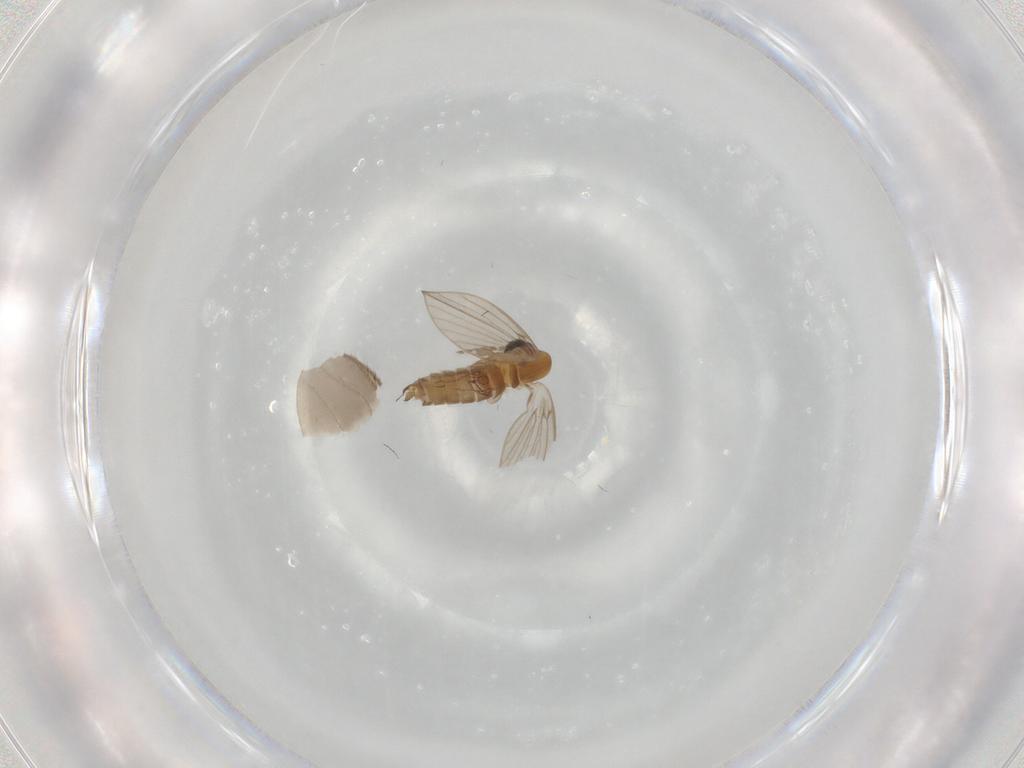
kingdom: Animalia
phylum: Arthropoda
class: Insecta
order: Diptera
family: Psychodidae
